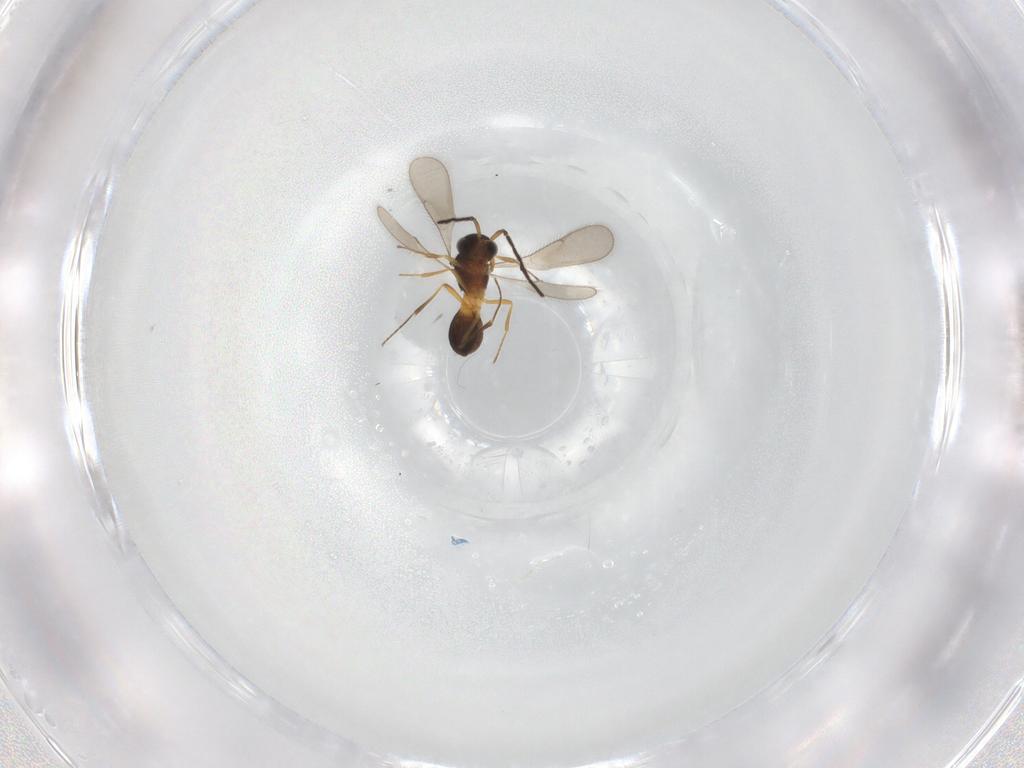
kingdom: Animalia
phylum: Arthropoda
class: Insecta
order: Hymenoptera
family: Scelionidae
